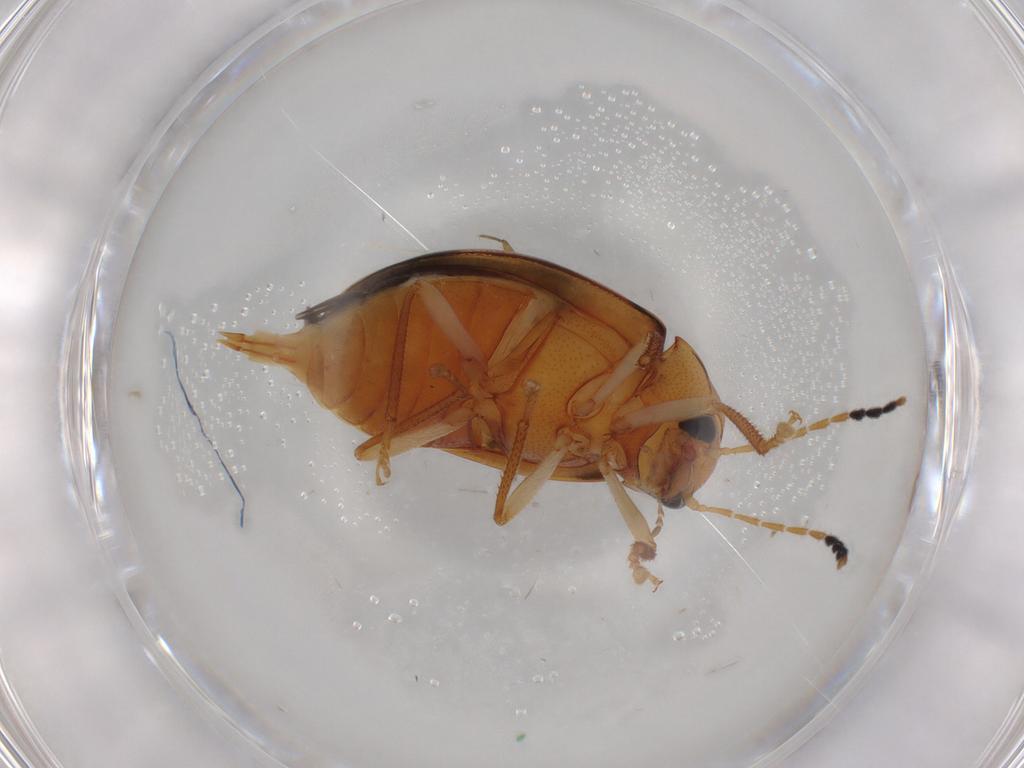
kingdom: Animalia
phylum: Arthropoda
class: Insecta
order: Coleoptera
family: Ptilodactylidae
